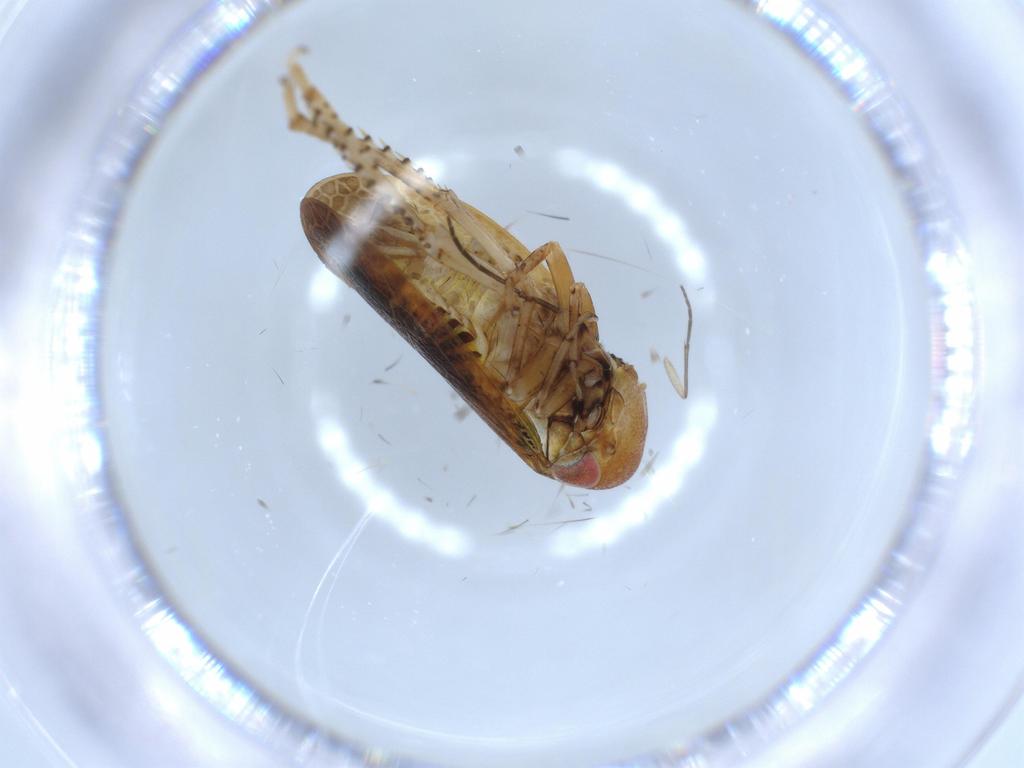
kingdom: Animalia
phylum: Arthropoda
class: Insecta
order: Hemiptera
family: Cicadellidae
